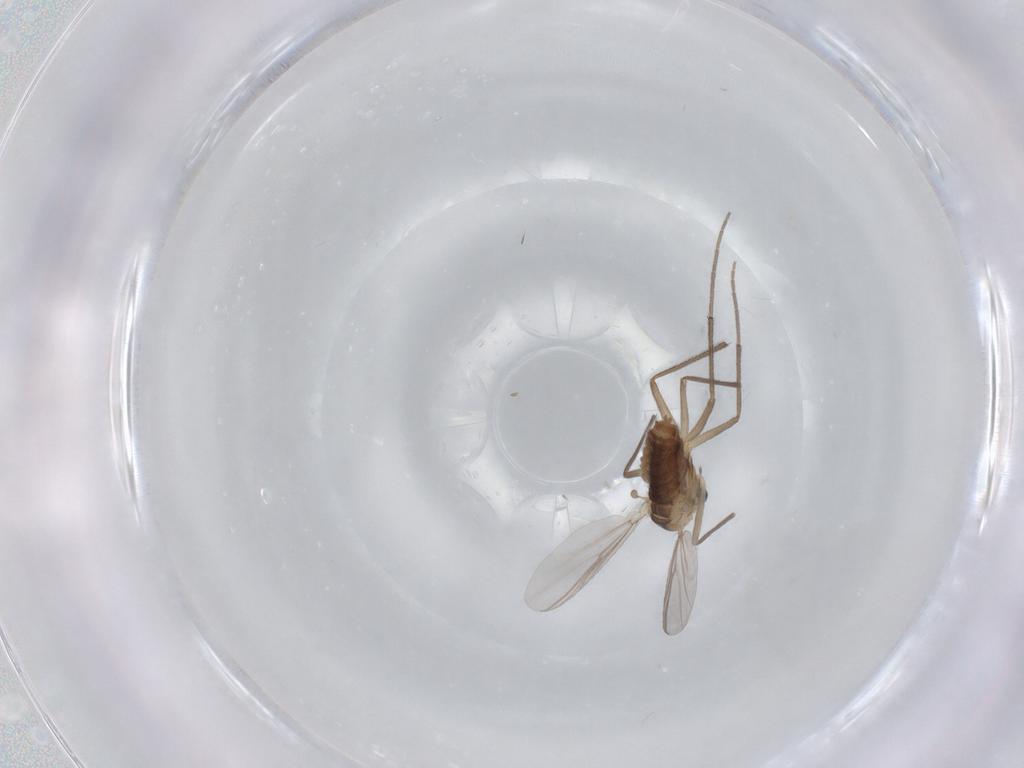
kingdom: Animalia
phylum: Arthropoda
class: Insecta
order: Diptera
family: Chironomidae
